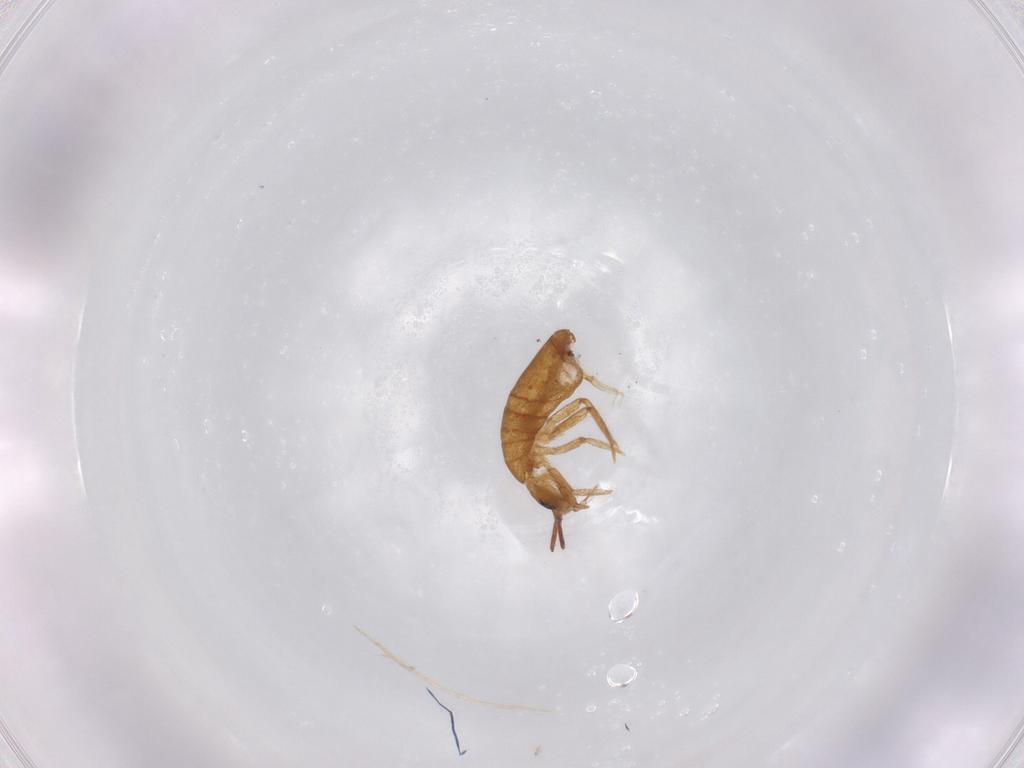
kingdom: Animalia
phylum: Arthropoda
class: Collembola
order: Entomobryomorpha
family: Entomobryidae
